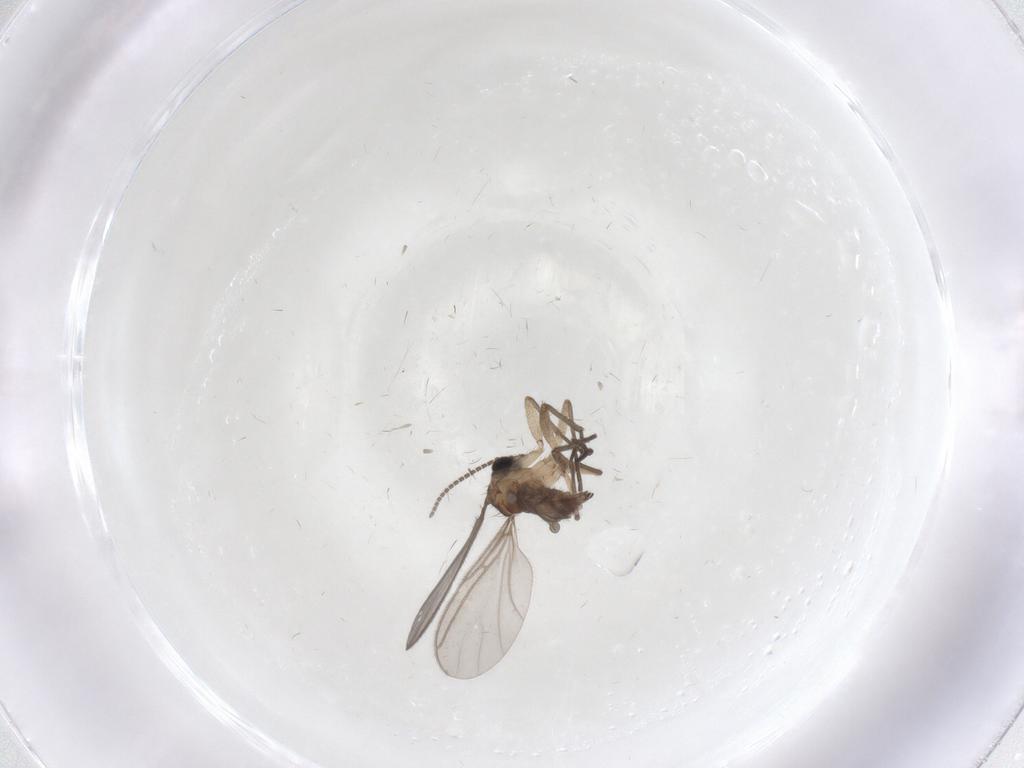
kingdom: Animalia
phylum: Arthropoda
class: Insecta
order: Diptera
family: Sciaridae
